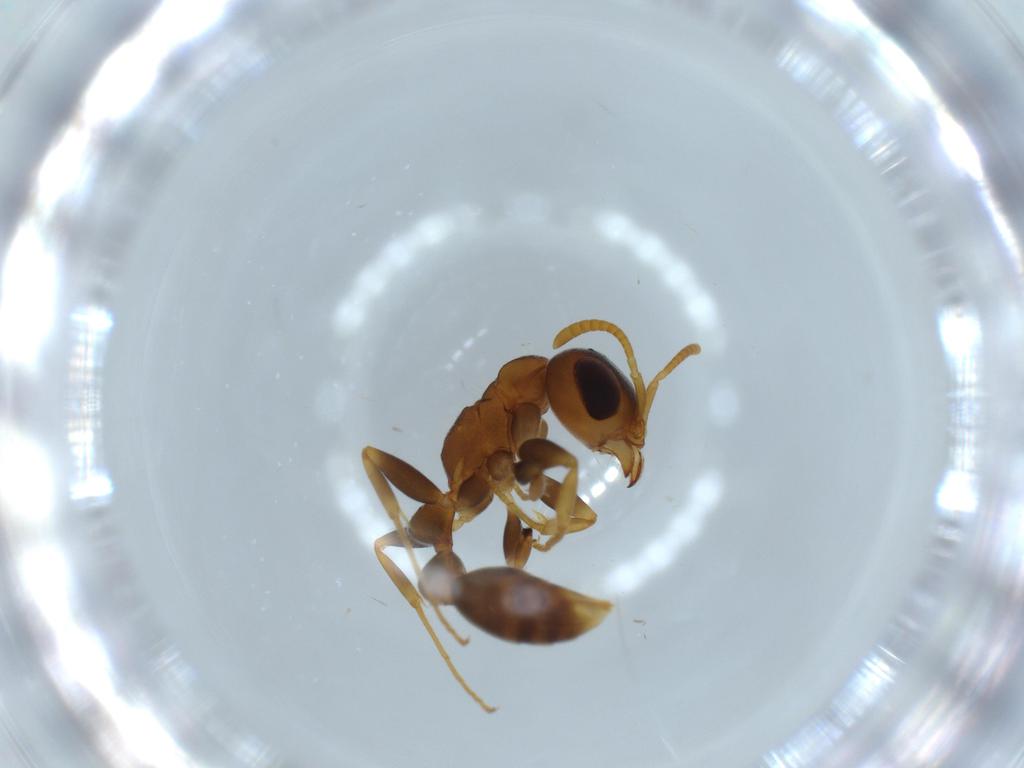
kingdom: Animalia
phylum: Arthropoda
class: Insecta
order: Hymenoptera
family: Formicidae
